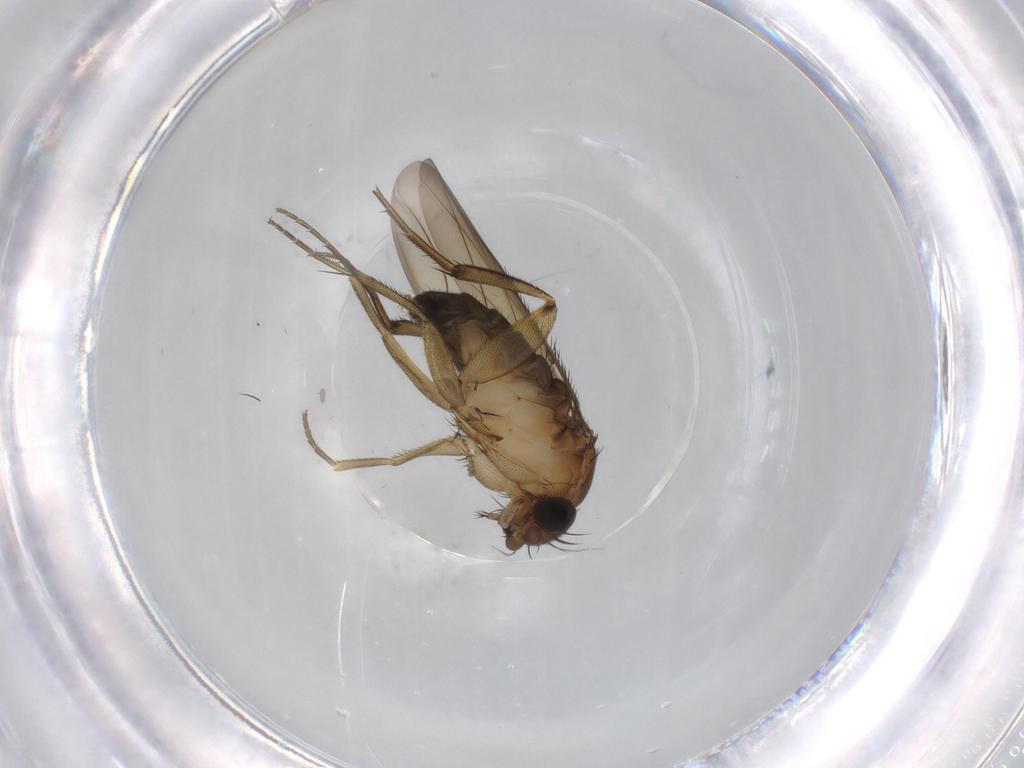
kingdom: Animalia
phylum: Arthropoda
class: Insecta
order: Diptera
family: Phoridae
